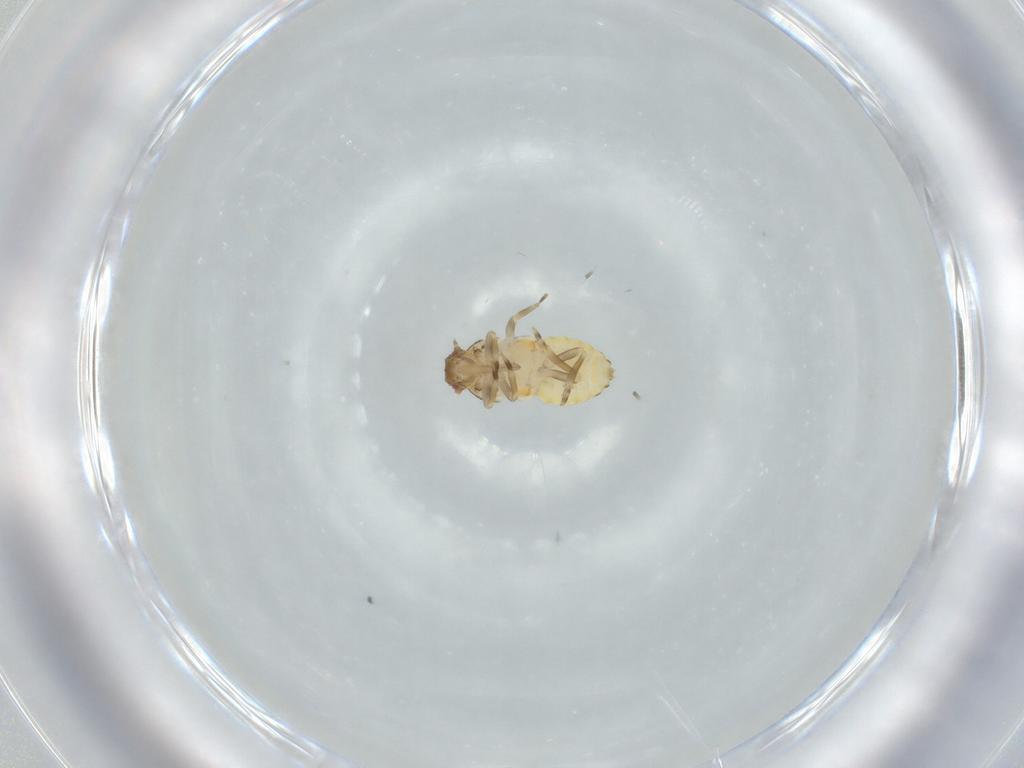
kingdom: Animalia
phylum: Arthropoda
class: Insecta
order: Hemiptera
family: Flatidae
